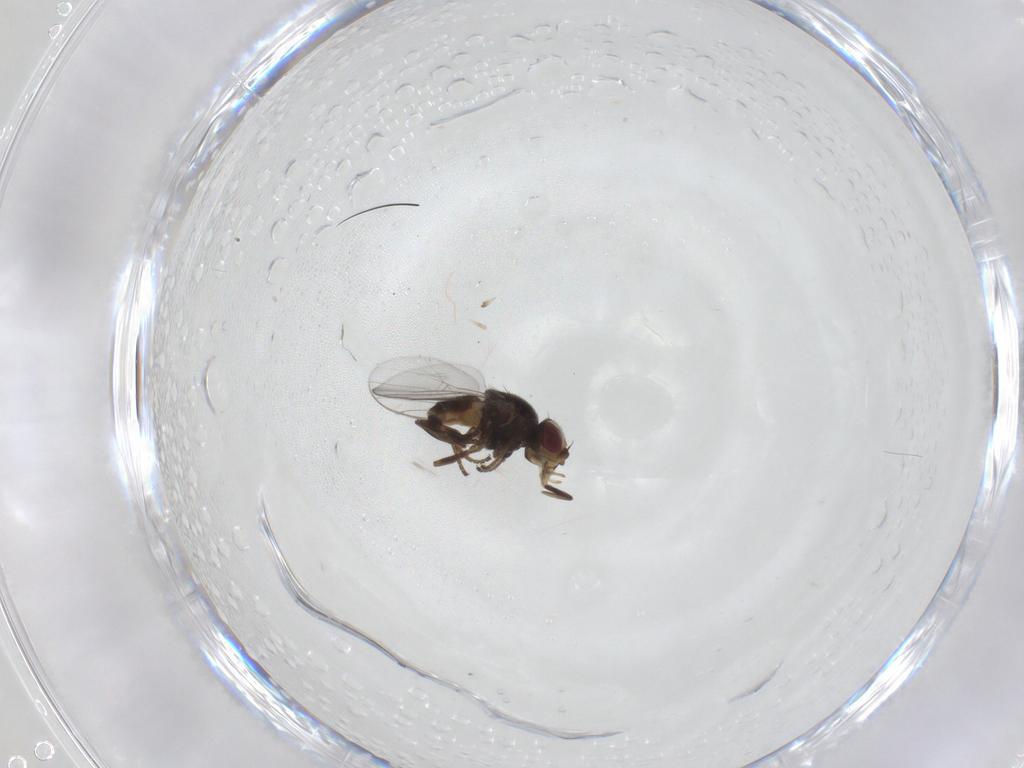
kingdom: Animalia
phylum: Arthropoda
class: Insecta
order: Diptera
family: Chloropidae
